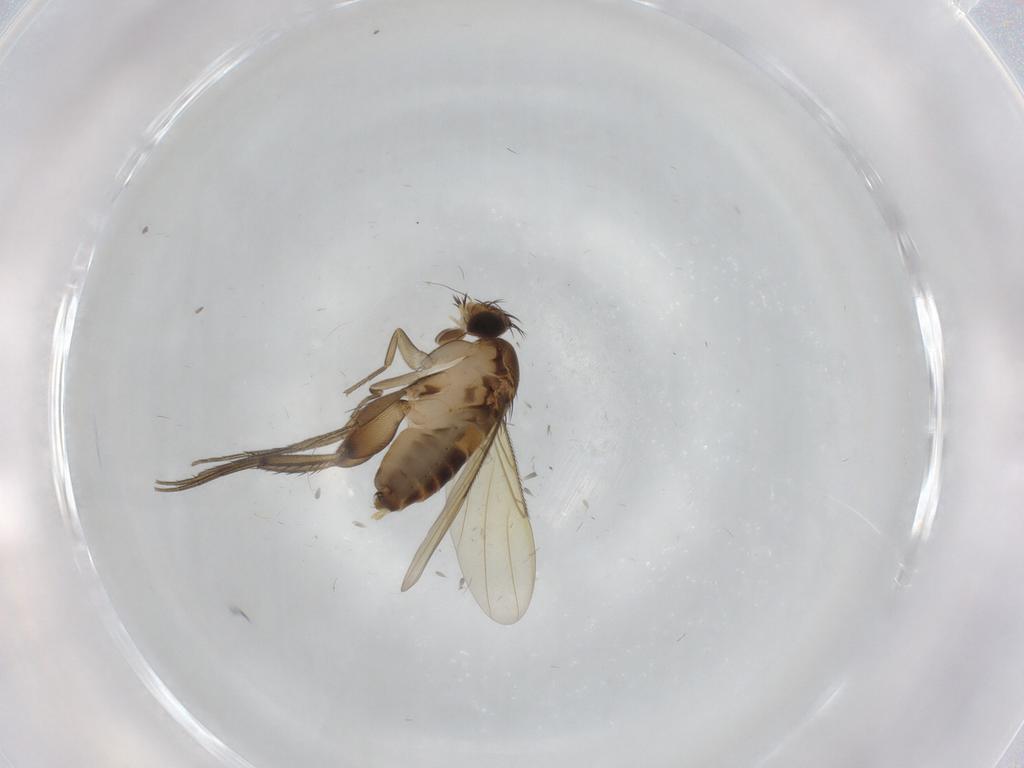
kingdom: Animalia
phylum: Arthropoda
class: Insecta
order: Diptera
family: Phoridae
